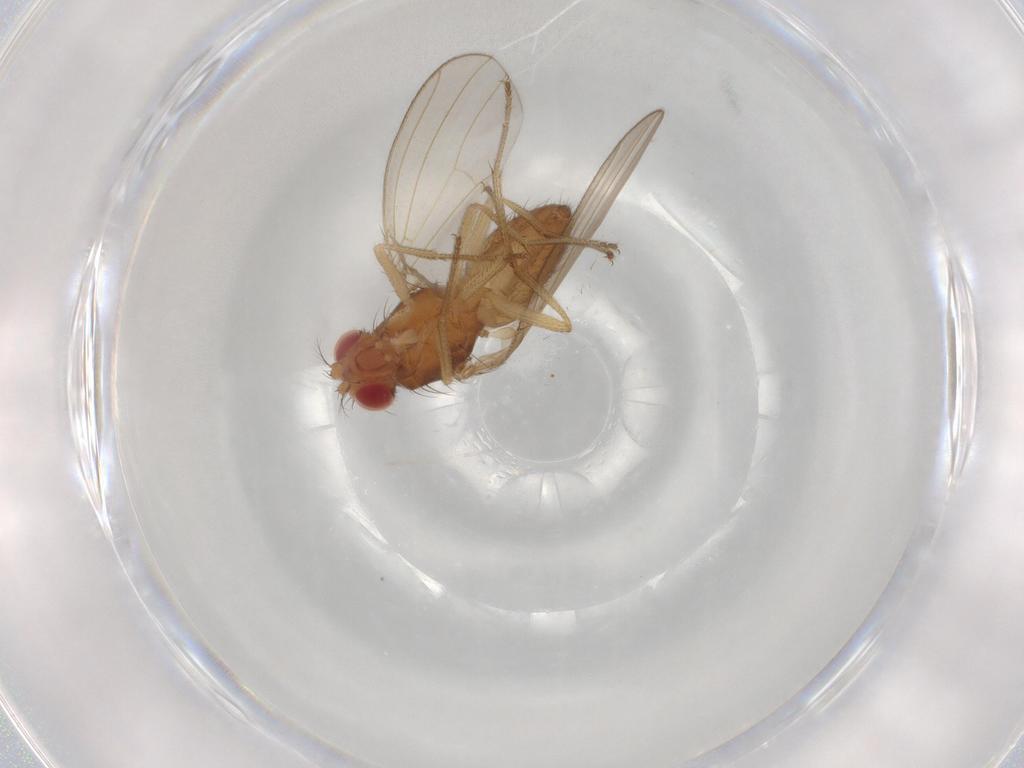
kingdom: Animalia
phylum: Arthropoda
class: Insecta
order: Diptera
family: Drosophilidae
